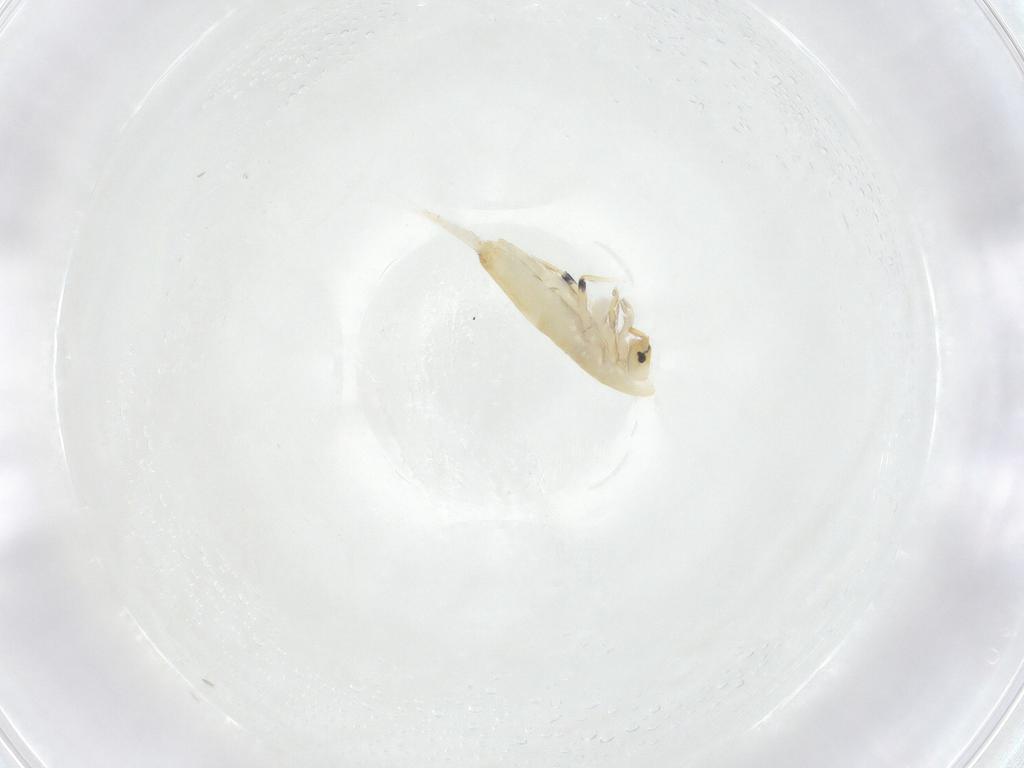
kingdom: Animalia
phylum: Arthropoda
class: Collembola
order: Entomobryomorpha
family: Entomobryidae
